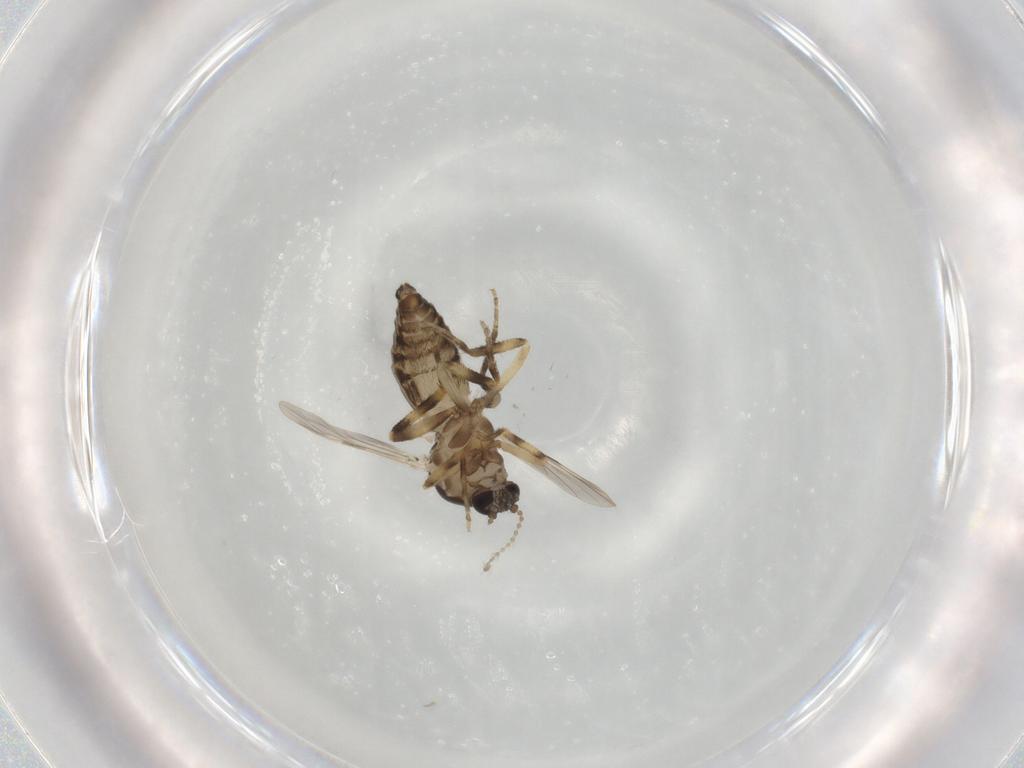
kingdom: Animalia
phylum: Arthropoda
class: Insecta
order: Diptera
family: Ceratopogonidae
